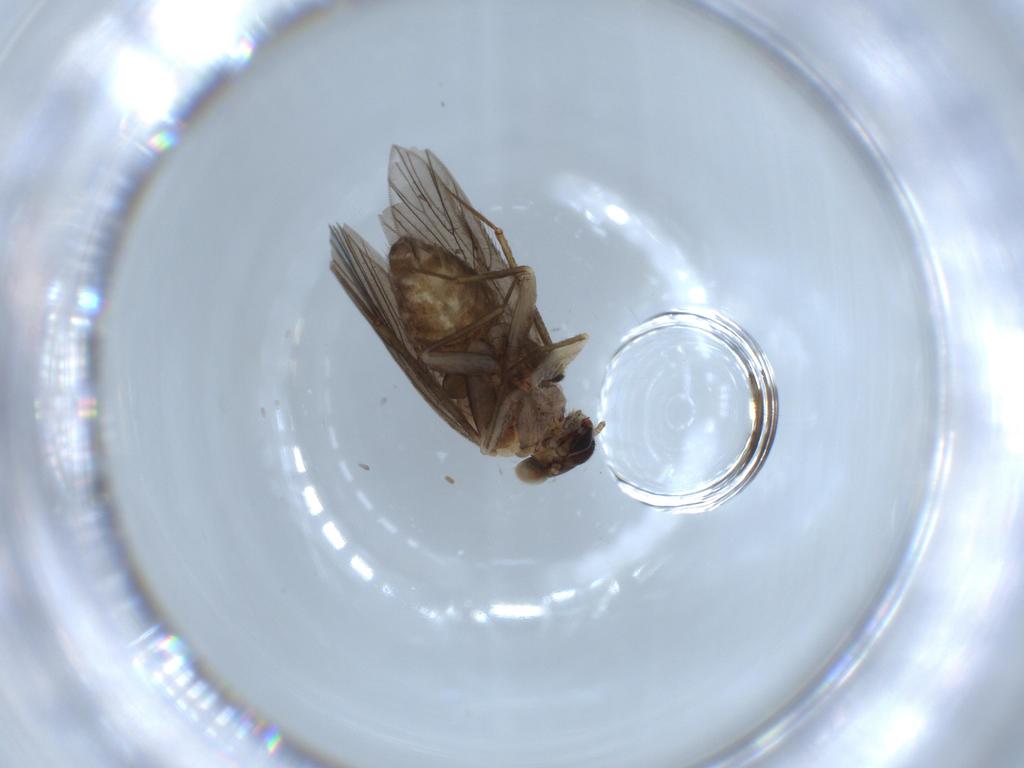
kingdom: Animalia
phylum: Arthropoda
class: Insecta
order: Psocodea
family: Lepidopsocidae
